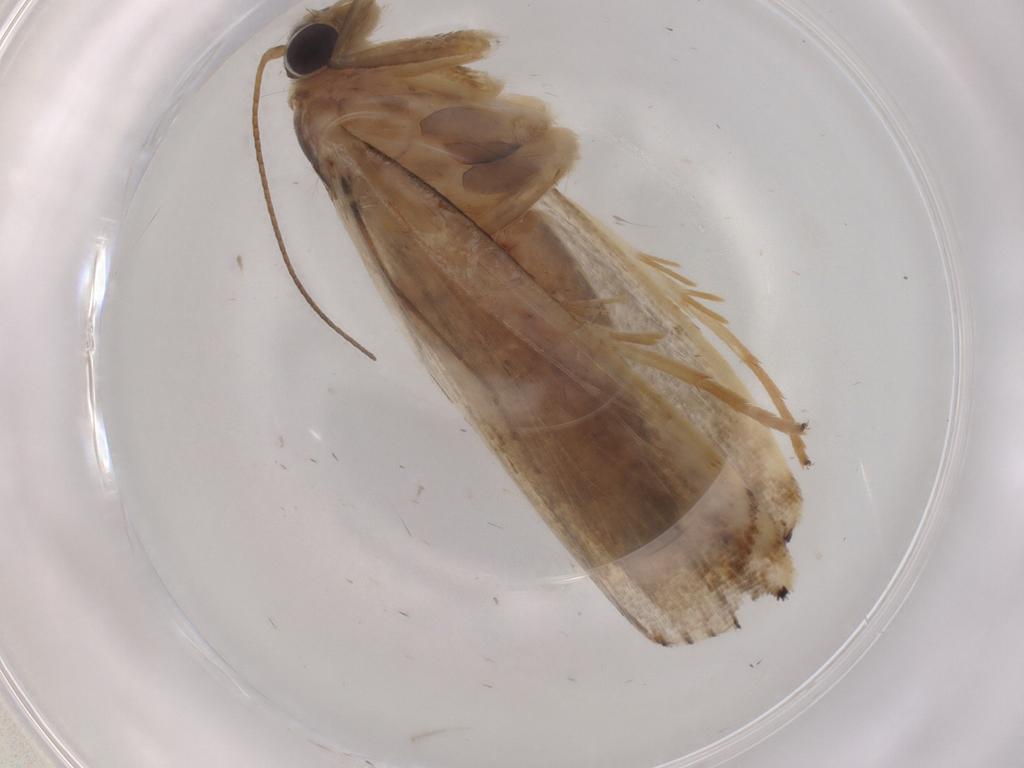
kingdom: Animalia
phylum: Arthropoda
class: Insecta
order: Lepidoptera
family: Crambidae
